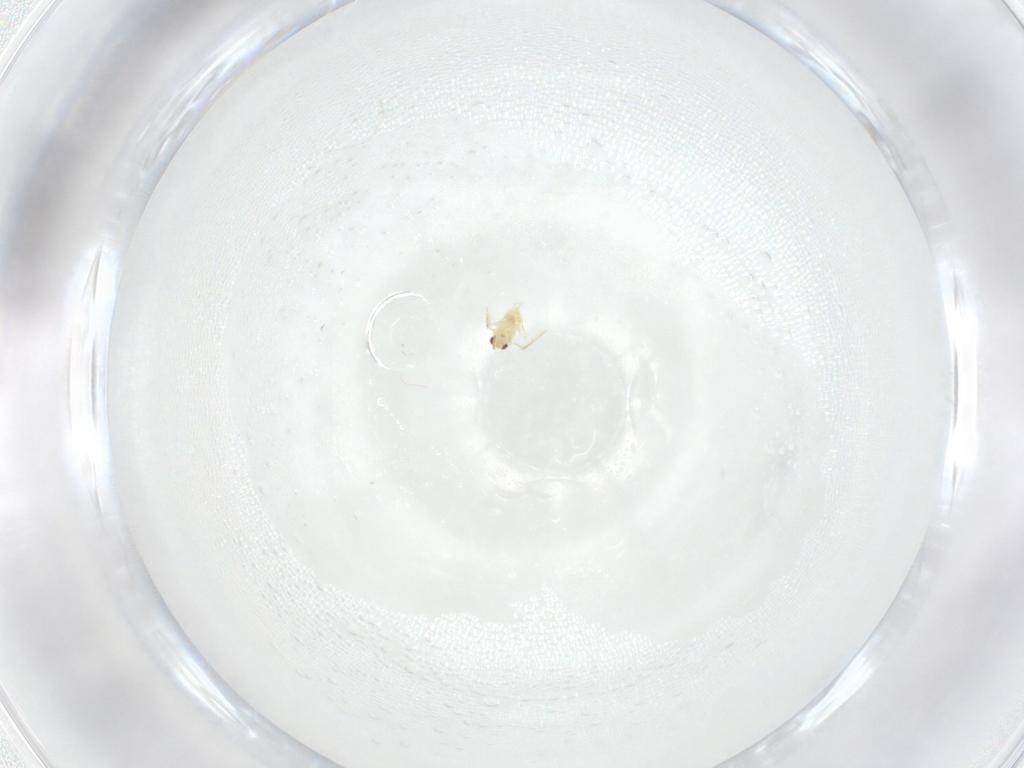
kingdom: Animalia
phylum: Arthropoda
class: Insecta
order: Hymenoptera
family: Aphelinidae
